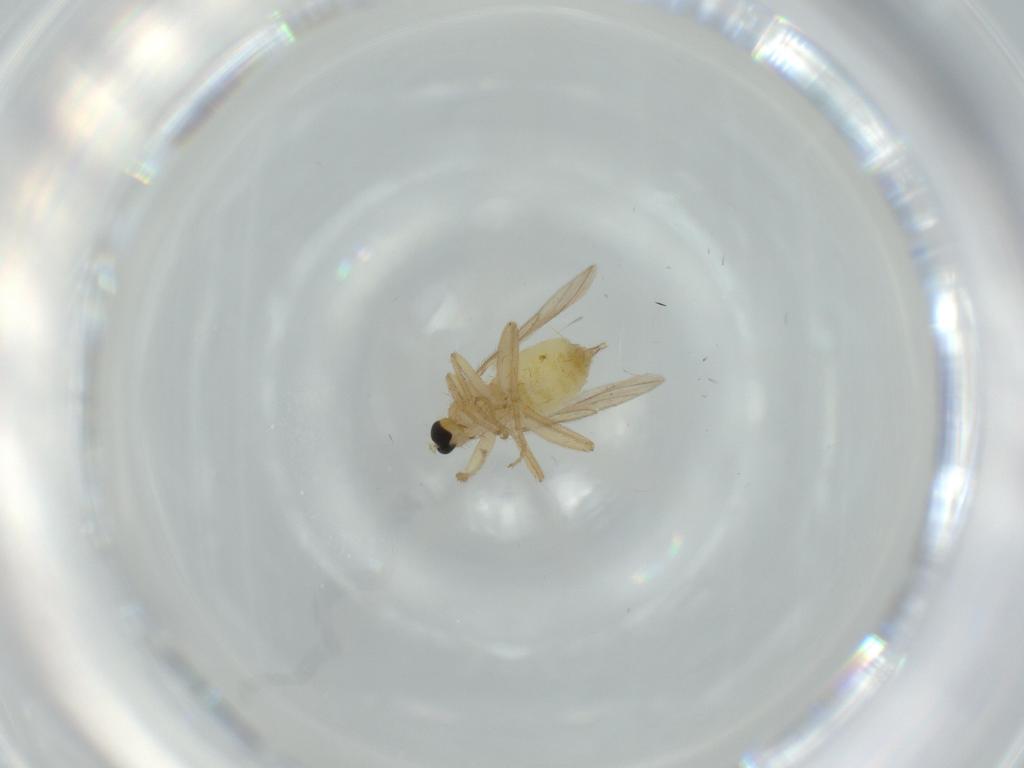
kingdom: Animalia
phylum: Arthropoda
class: Insecta
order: Diptera
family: Hybotidae
